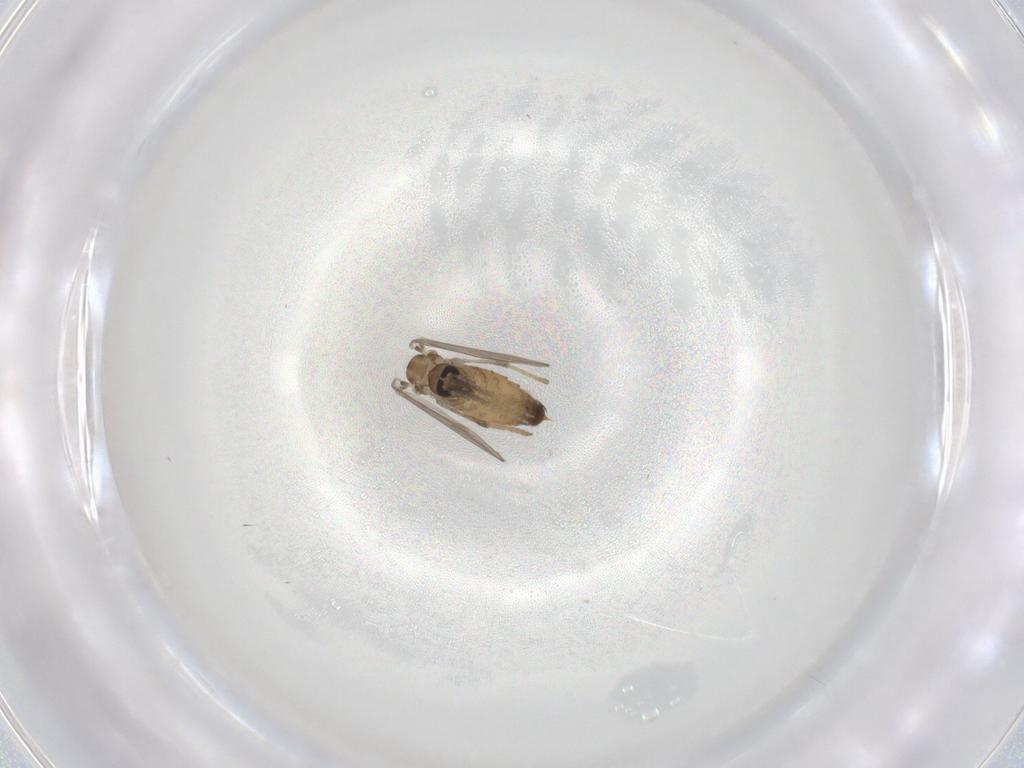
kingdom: Animalia
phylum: Arthropoda
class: Insecta
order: Diptera
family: Psychodidae
